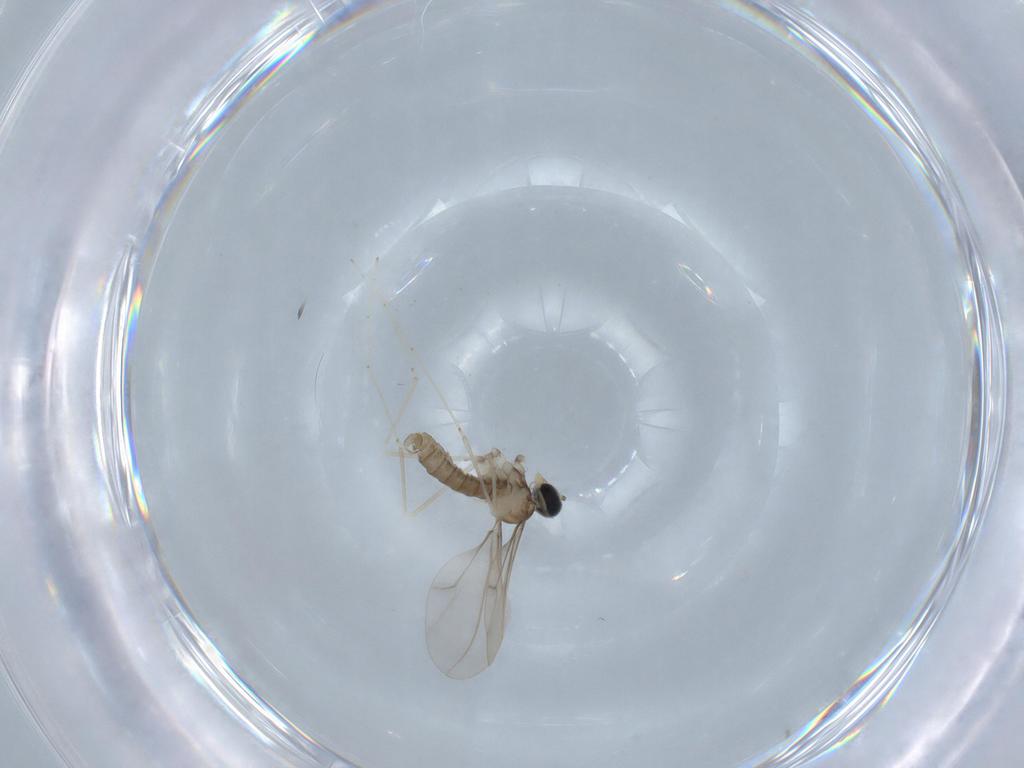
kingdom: Animalia
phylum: Arthropoda
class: Insecta
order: Diptera
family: Cecidomyiidae
